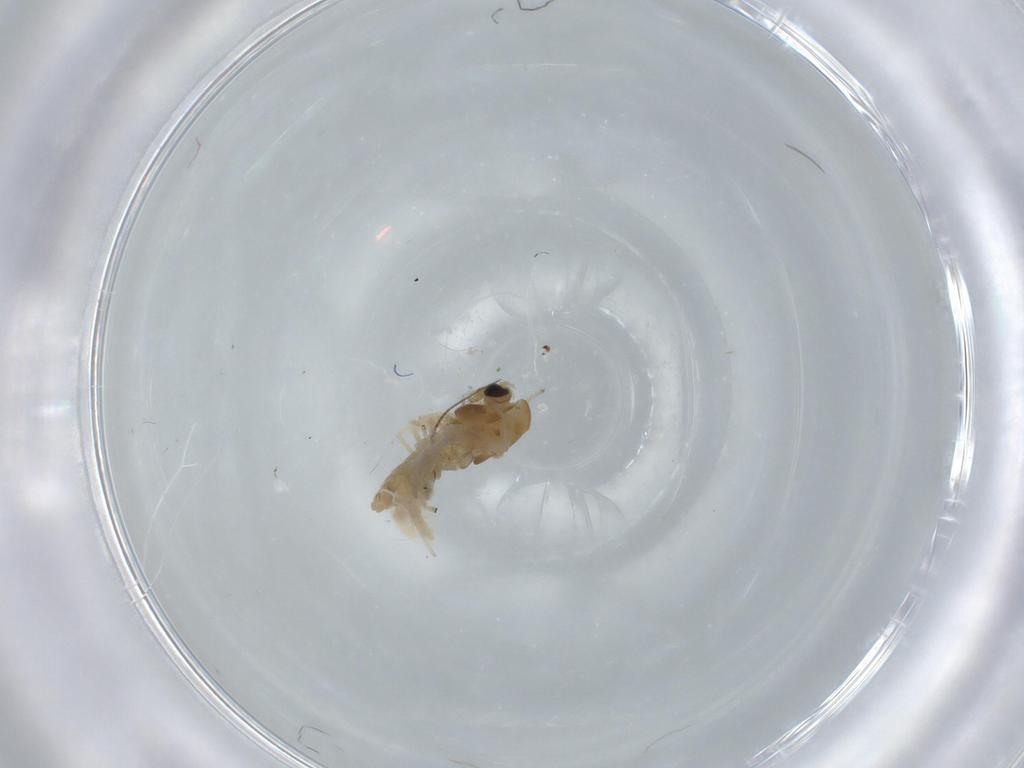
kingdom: Animalia
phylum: Arthropoda
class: Insecta
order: Diptera
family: Chironomidae
